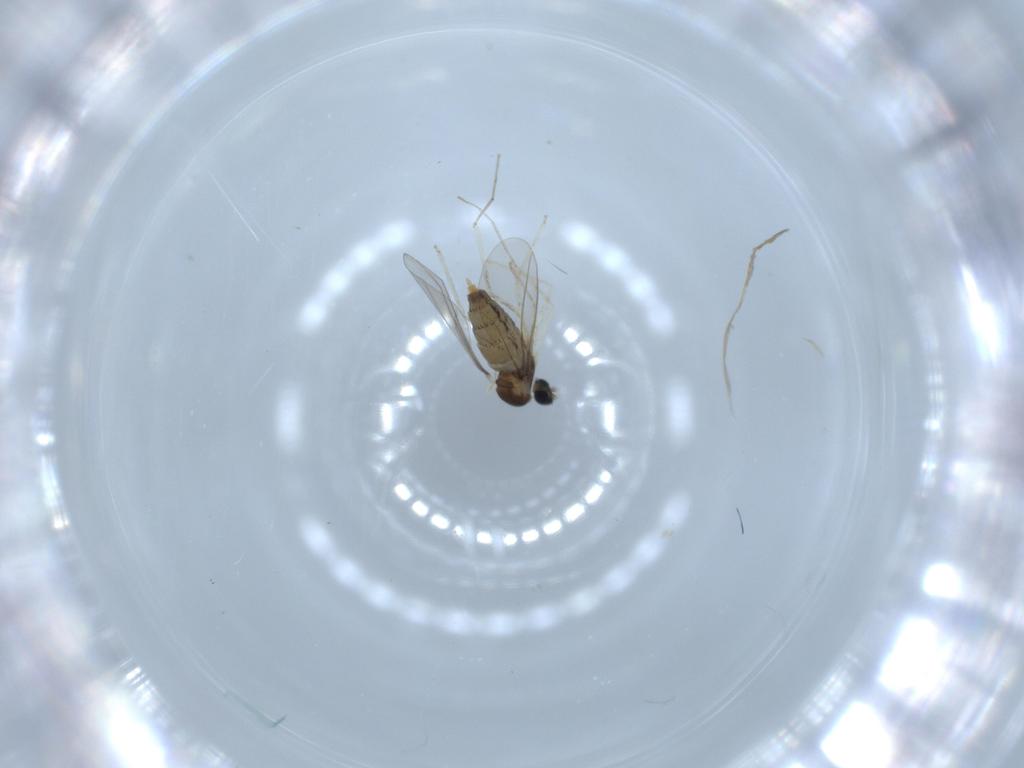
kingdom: Animalia
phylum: Arthropoda
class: Insecta
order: Diptera
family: Cecidomyiidae
